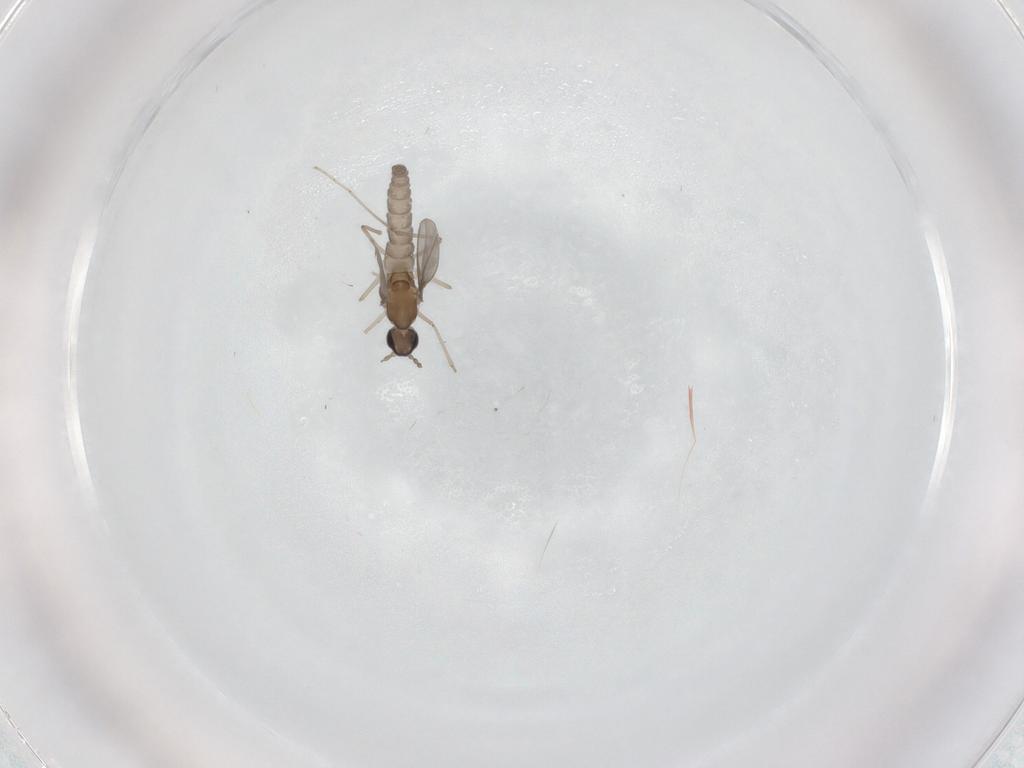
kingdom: Animalia
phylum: Arthropoda
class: Insecta
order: Diptera
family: Cecidomyiidae
